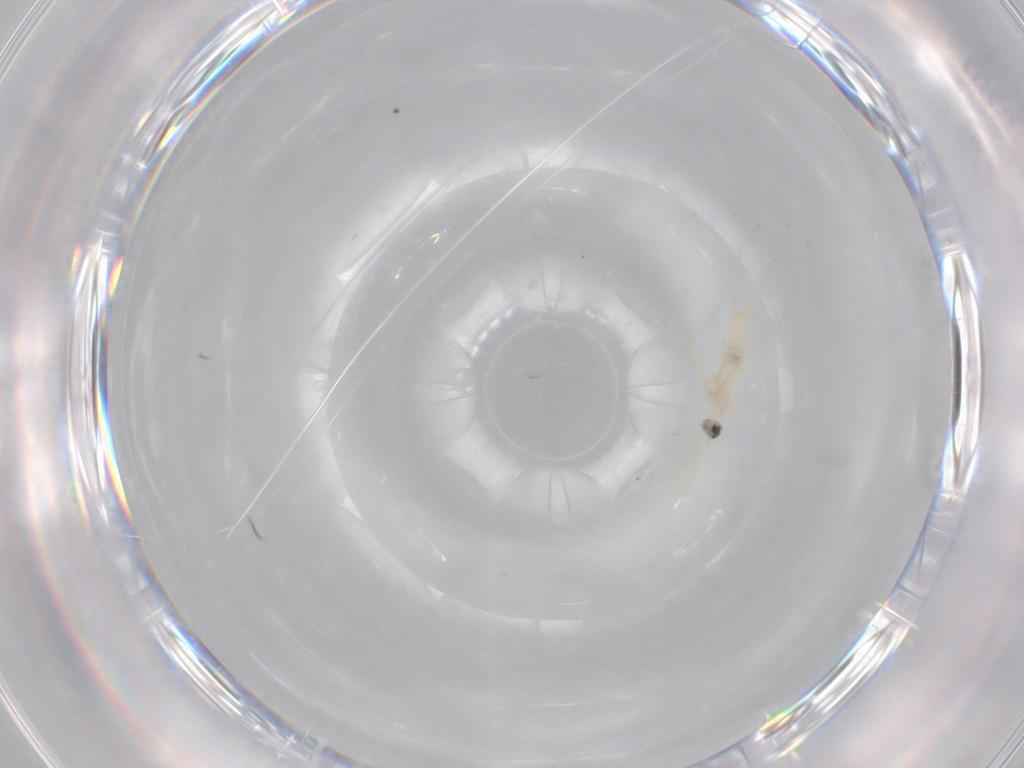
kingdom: Animalia
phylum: Arthropoda
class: Insecta
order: Diptera
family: Cecidomyiidae
